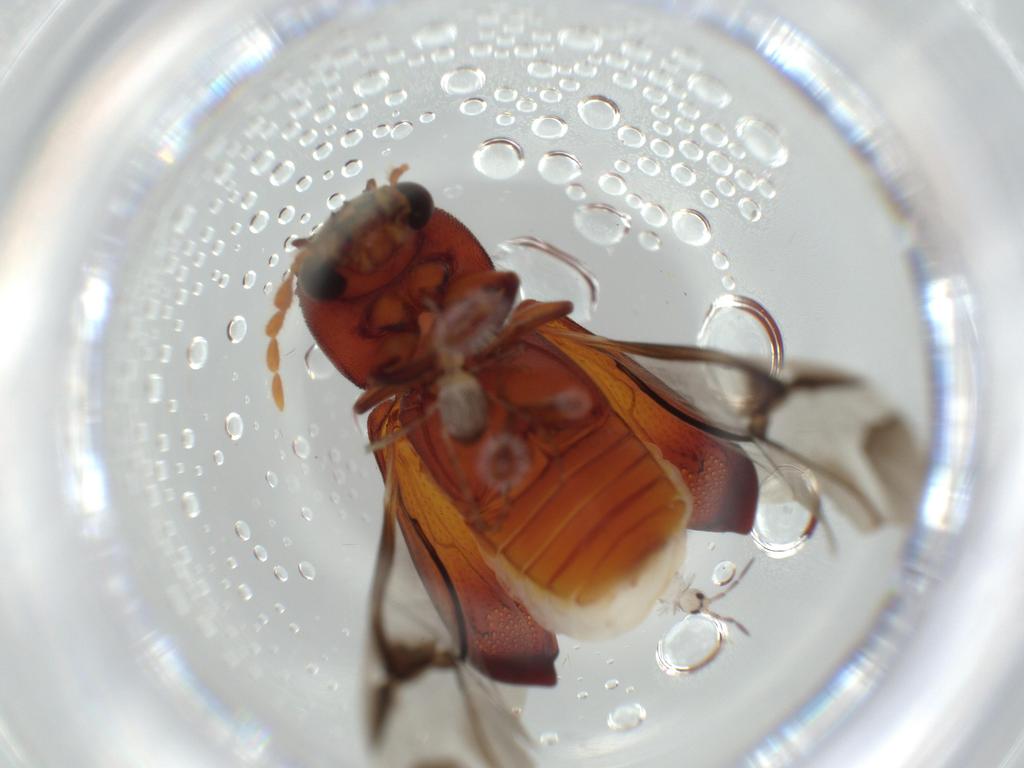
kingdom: Animalia
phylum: Arthropoda
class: Insecta
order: Coleoptera
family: Bostrichidae
